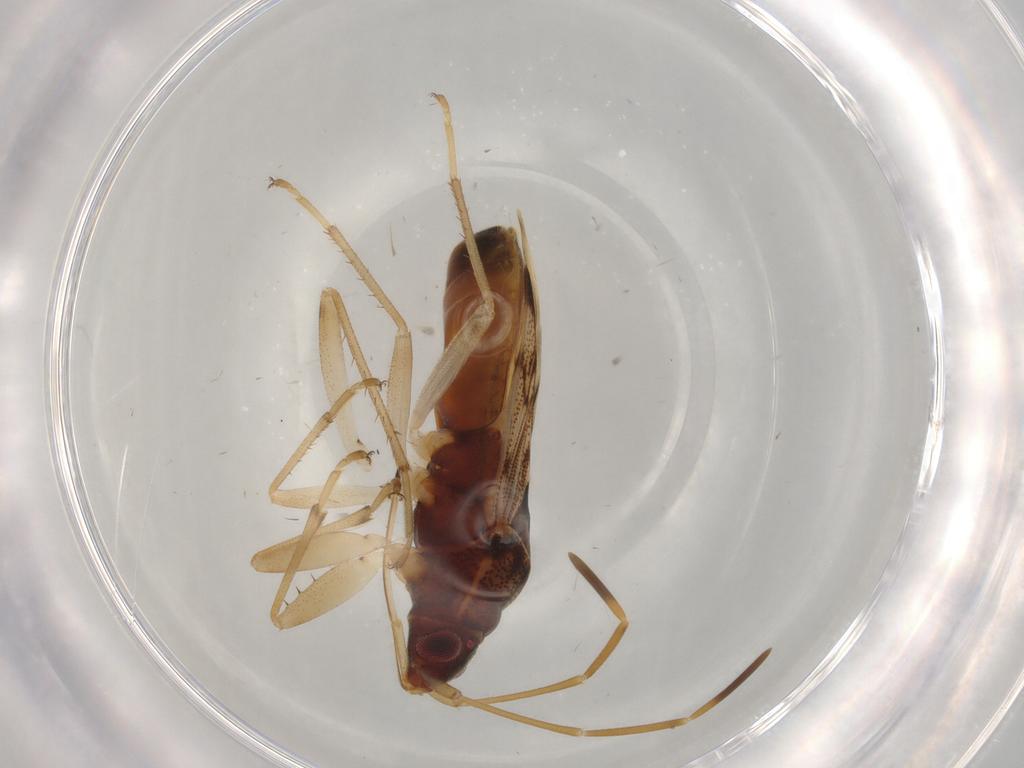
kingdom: Animalia
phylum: Arthropoda
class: Insecta
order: Hemiptera
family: Rhyparochromidae
